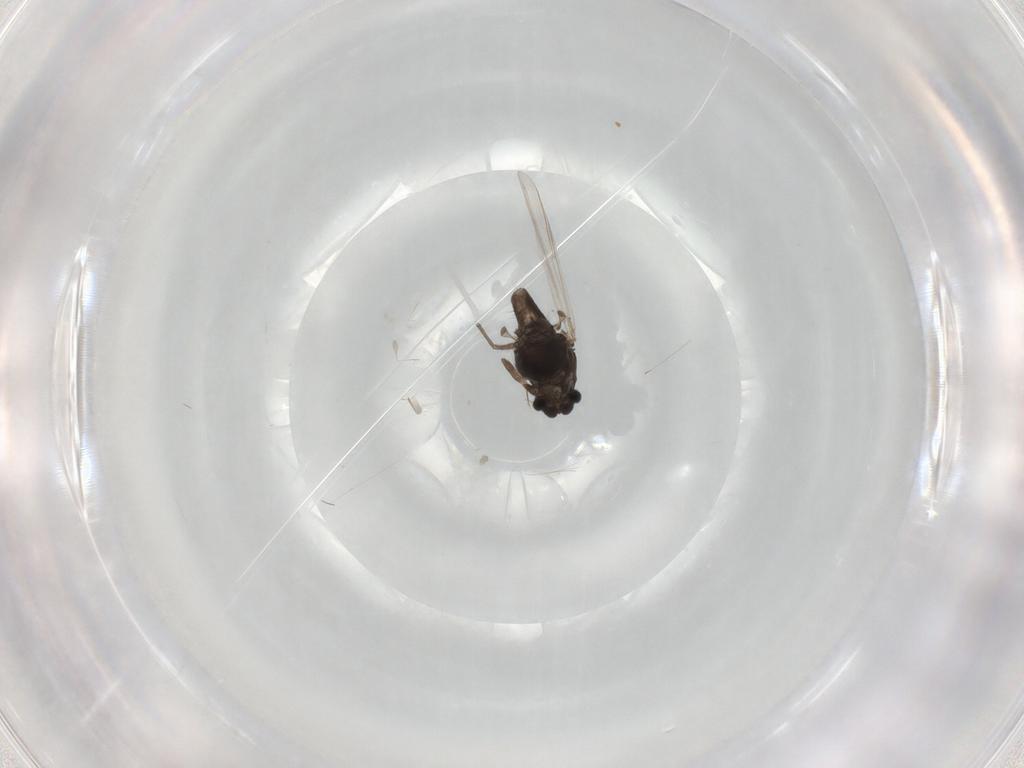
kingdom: Animalia
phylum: Arthropoda
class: Insecta
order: Diptera
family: Chironomidae
